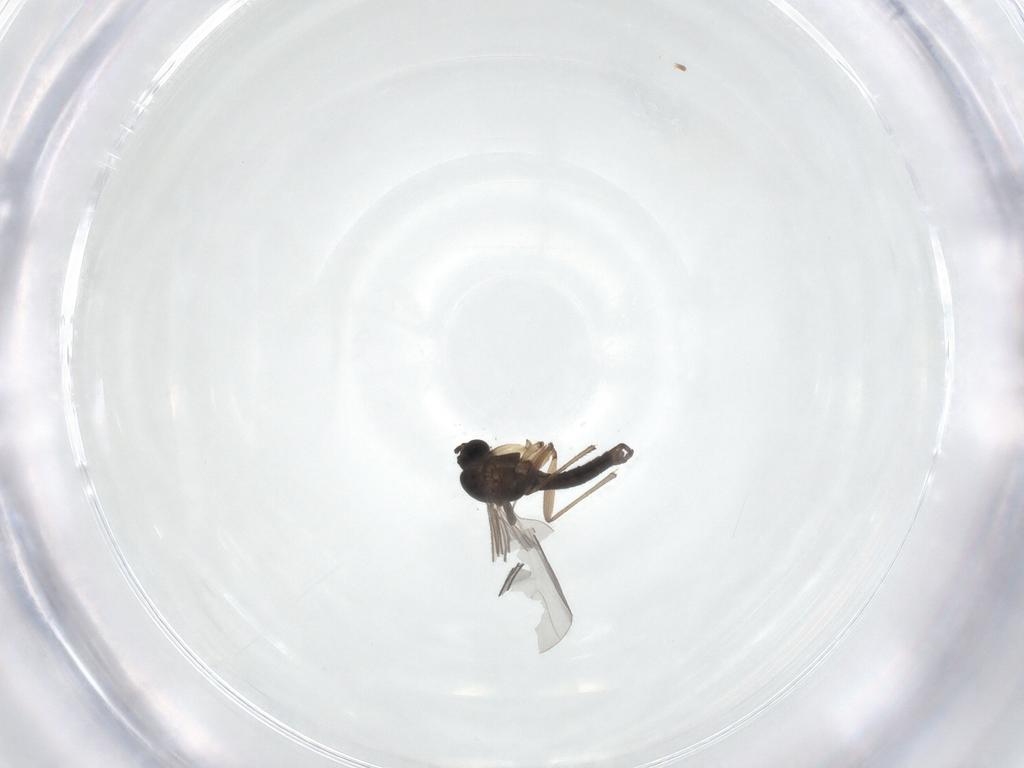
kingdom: Animalia
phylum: Arthropoda
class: Insecta
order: Diptera
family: Sciaridae
